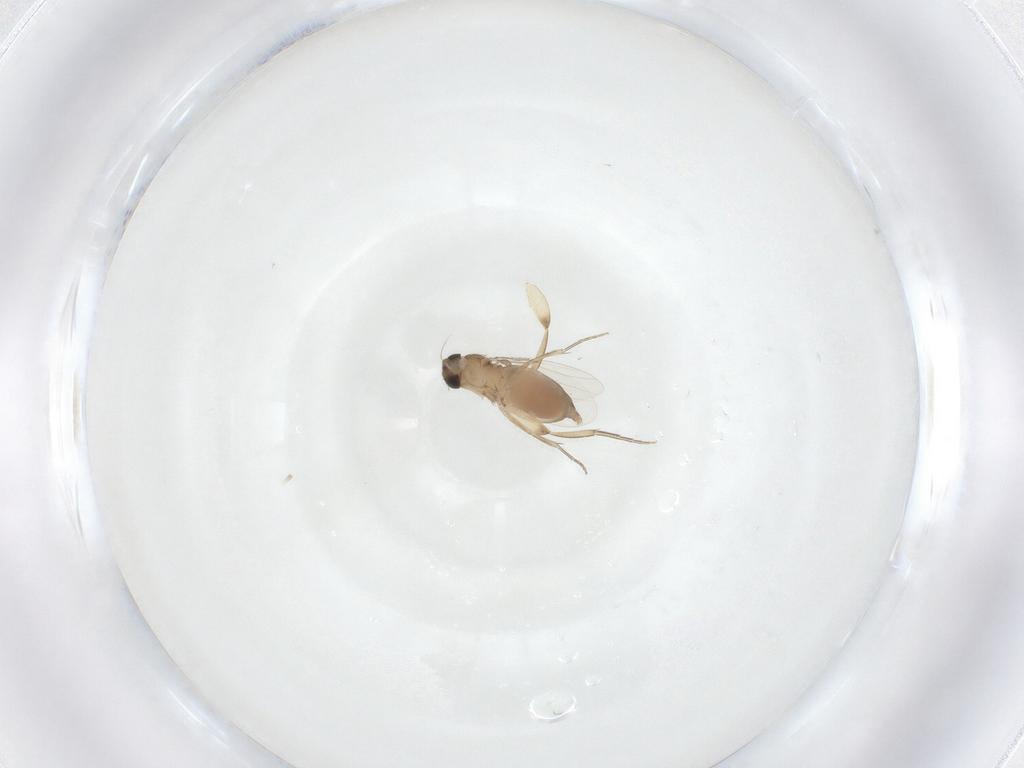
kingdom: Animalia
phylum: Arthropoda
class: Insecta
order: Diptera
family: Phoridae
